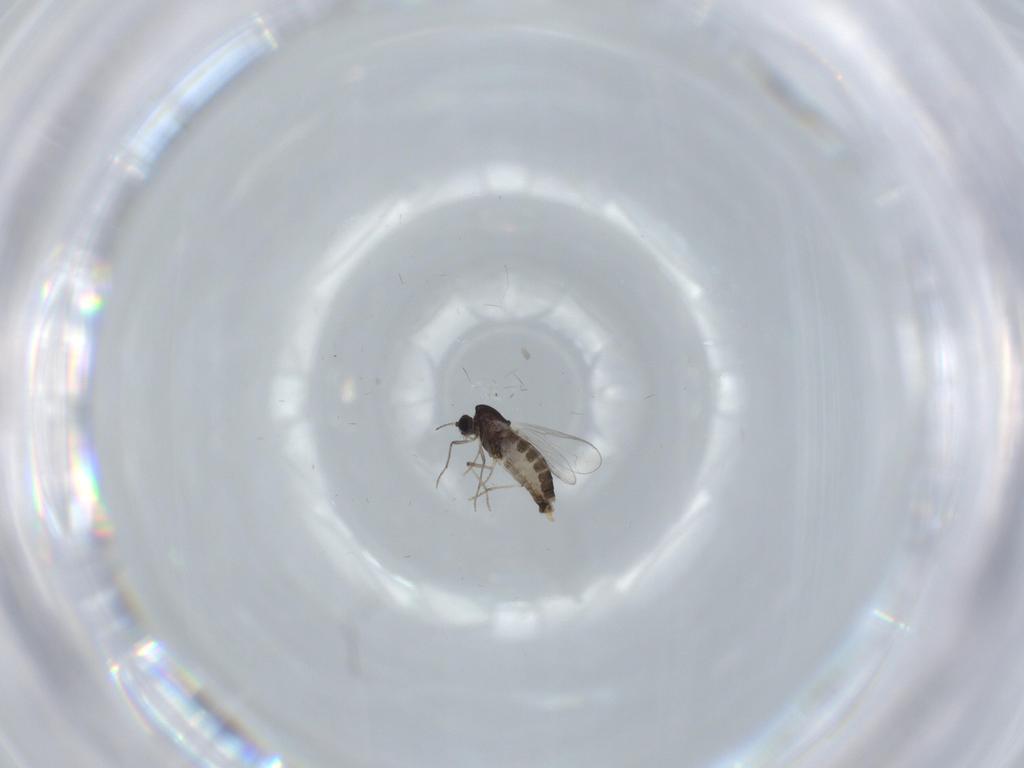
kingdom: Animalia
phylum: Arthropoda
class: Insecta
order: Diptera
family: Chironomidae
